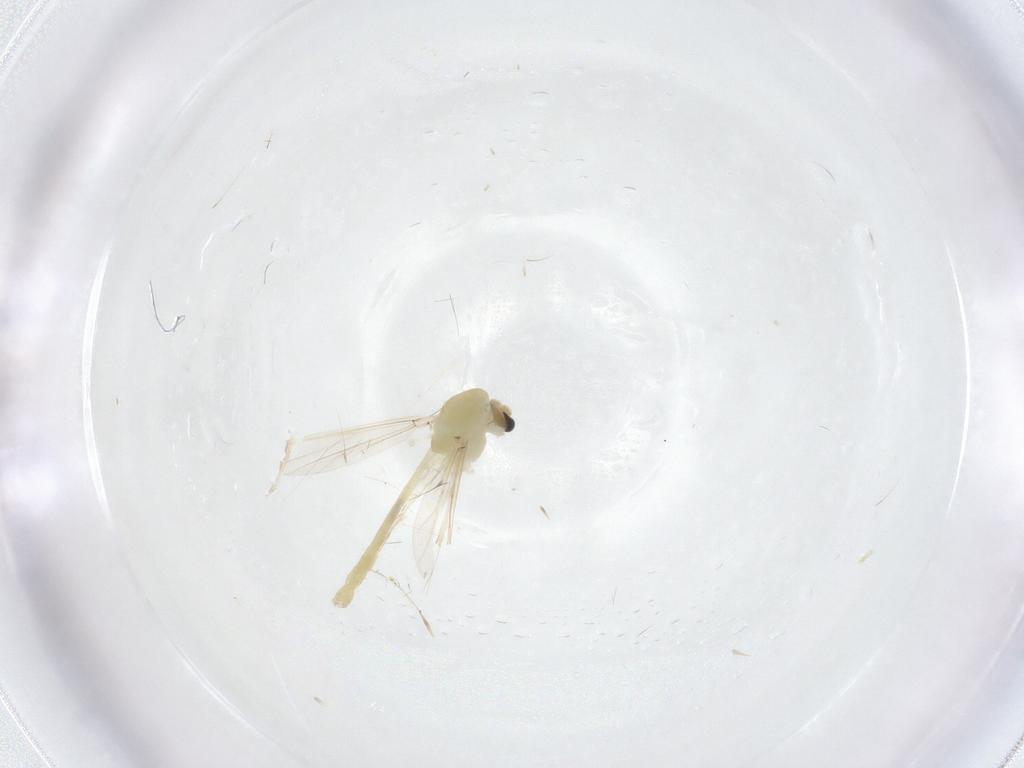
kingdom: Animalia
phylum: Arthropoda
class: Insecta
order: Diptera
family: Chironomidae
